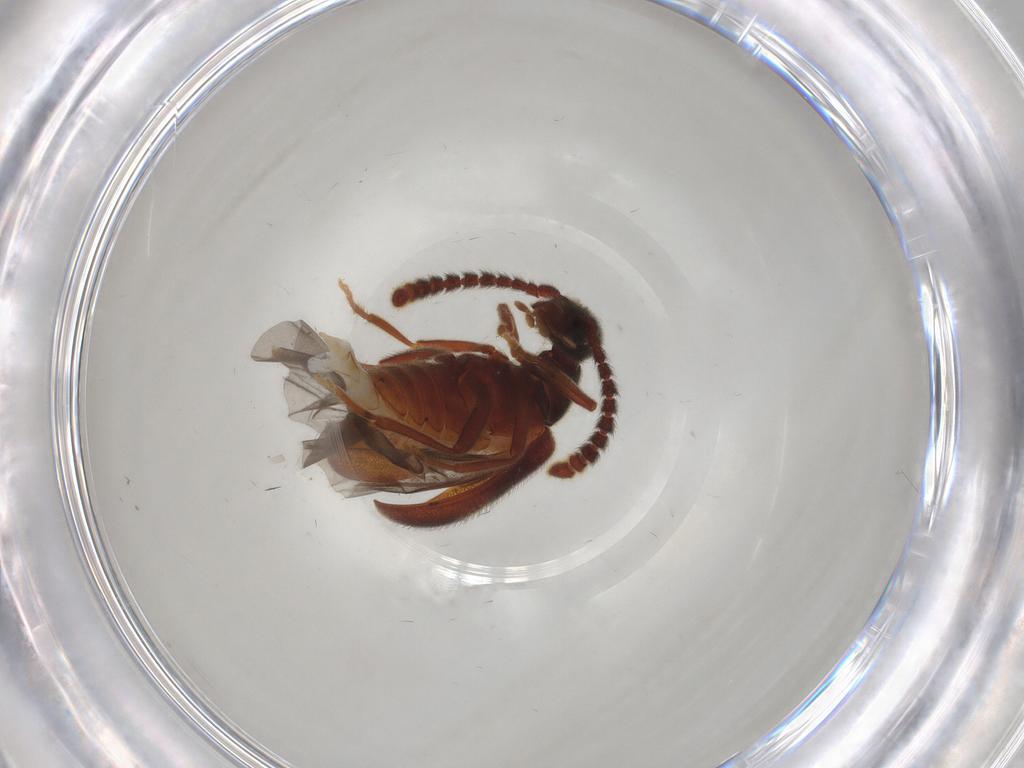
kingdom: Animalia
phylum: Arthropoda
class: Insecta
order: Coleoptera
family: Aderidae
